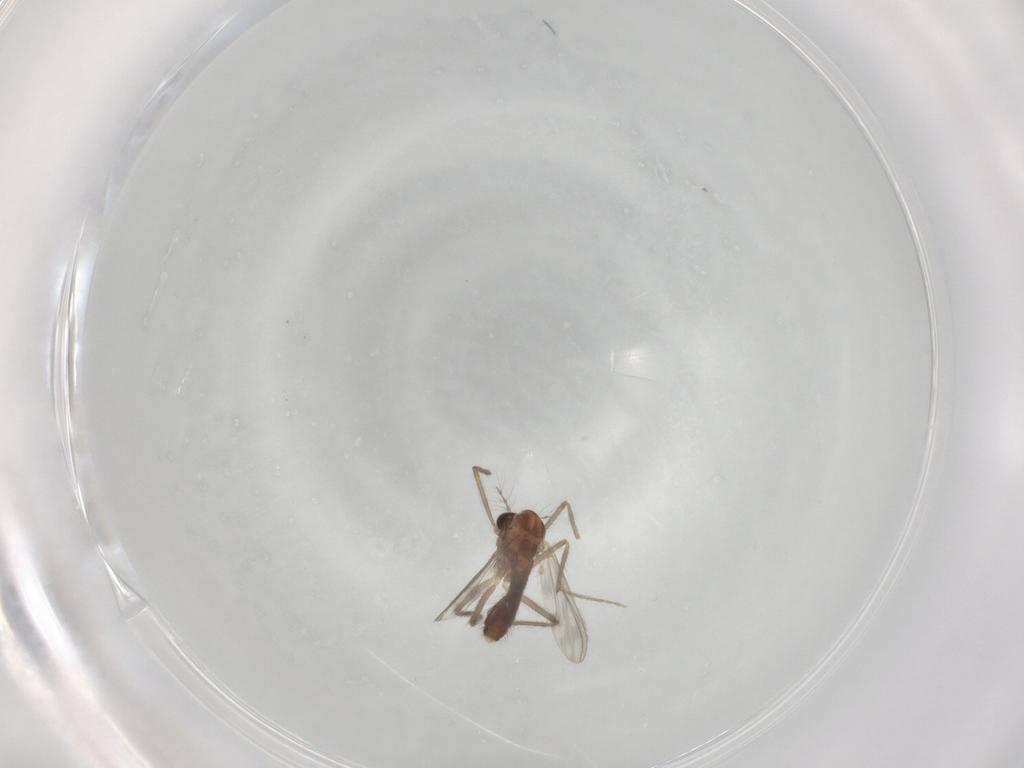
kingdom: Animalia
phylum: Arthropoda
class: Insecta
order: Diptera
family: Chironomidae
